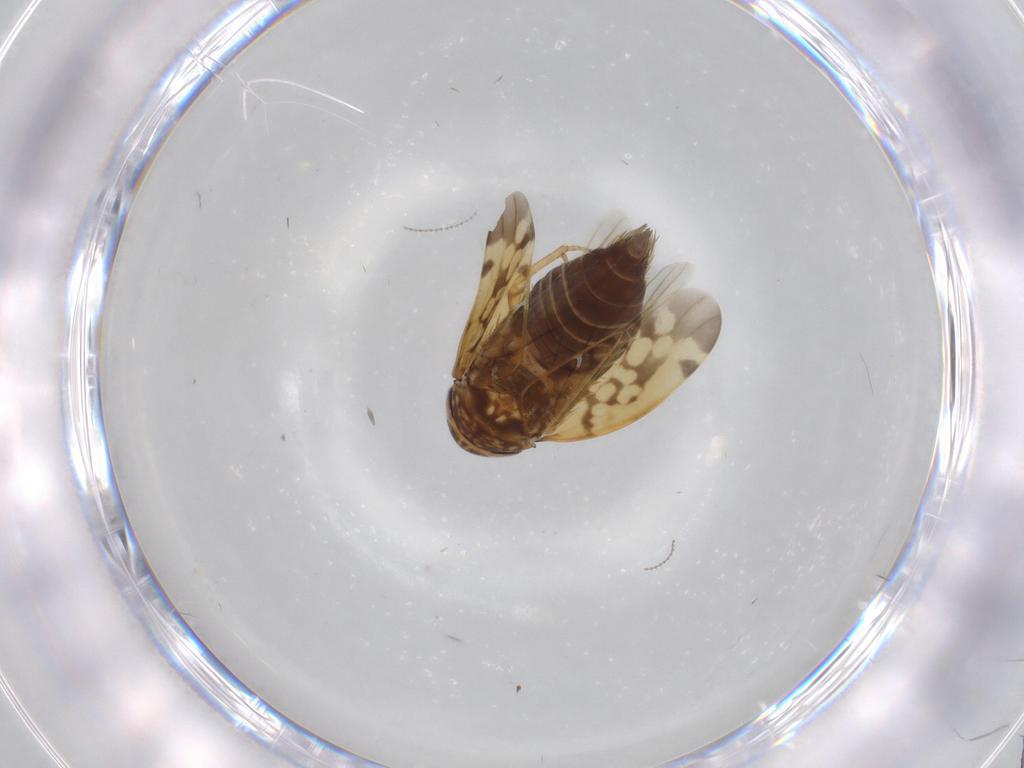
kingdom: Animalia
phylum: Arthropoda
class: Insecta
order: Hemiptera
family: Cicadellidae
